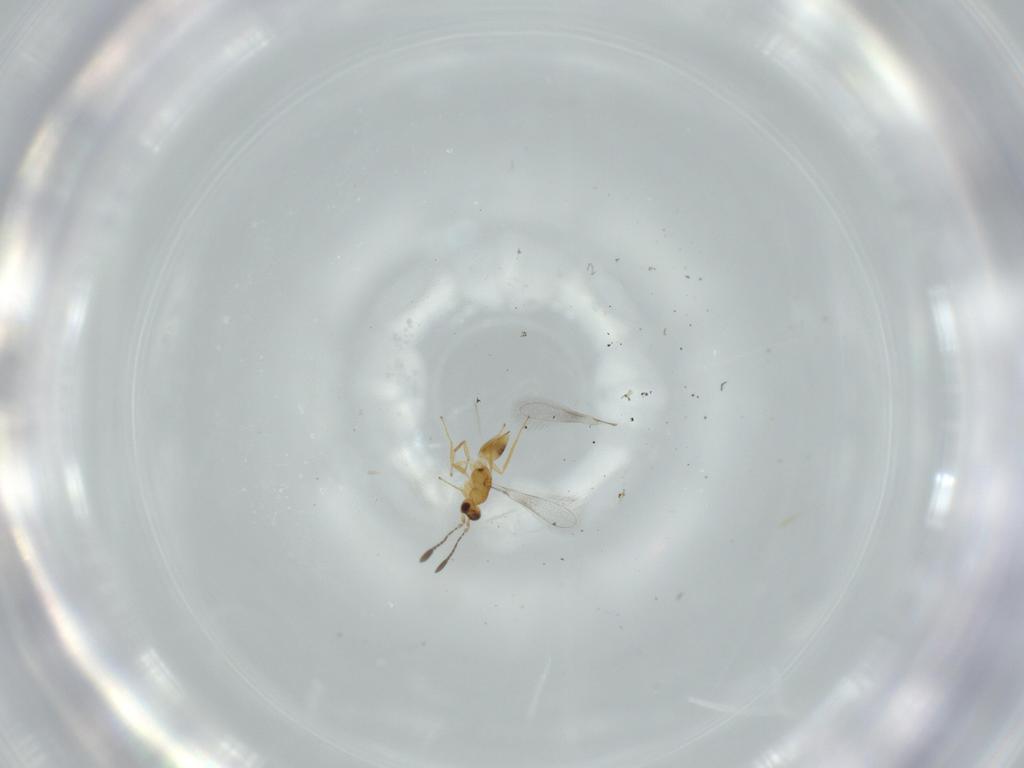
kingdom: Animalia
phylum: Arthropoda
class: Insecta
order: Hymenoptera
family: Mymaridae
